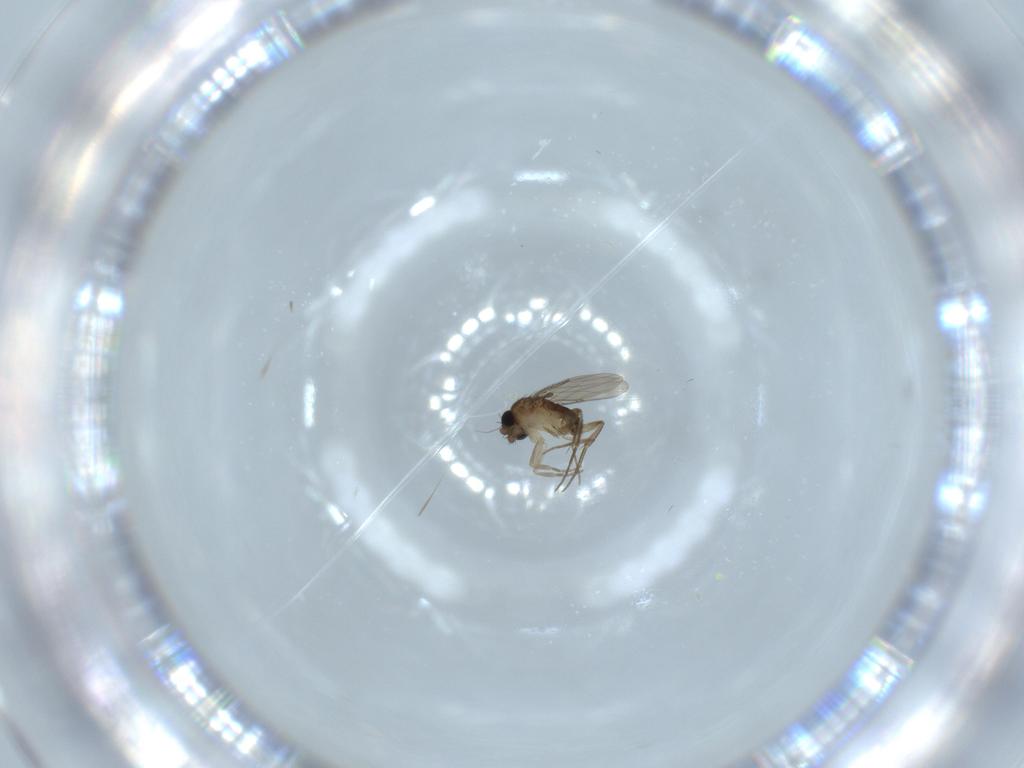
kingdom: Animalia
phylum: Arthropoda
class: Insecta
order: Diptera
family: Phoridae
